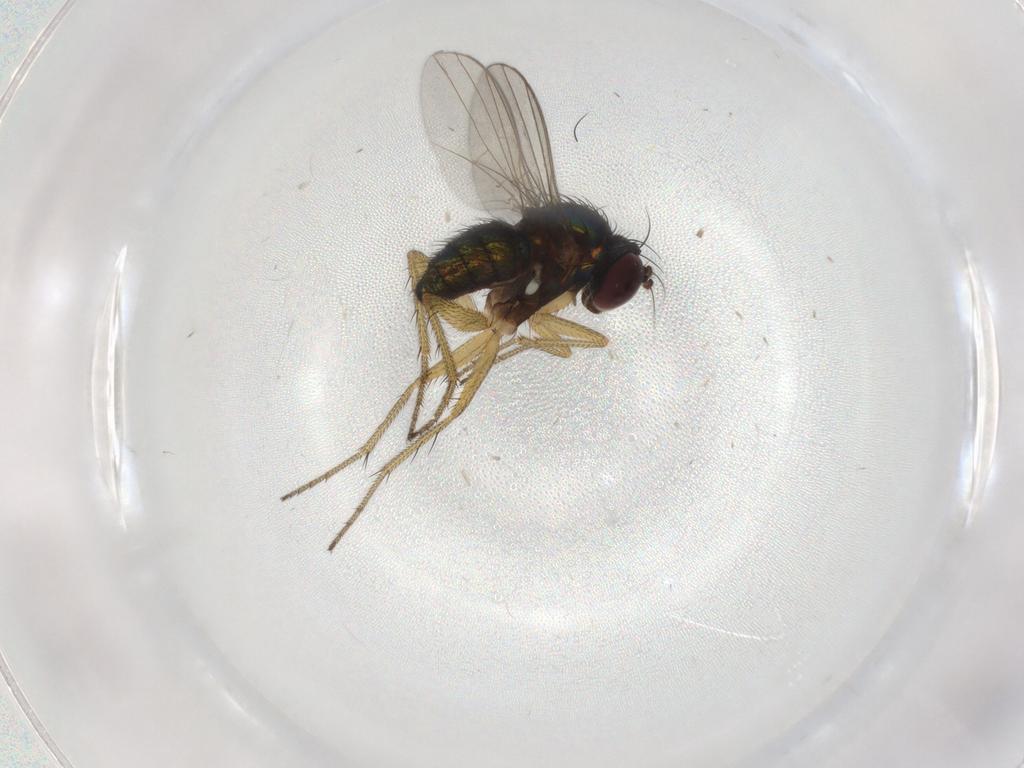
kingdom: Animalia
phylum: Arthropoda
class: Insecta
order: Diptera
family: Dolichopodidae
